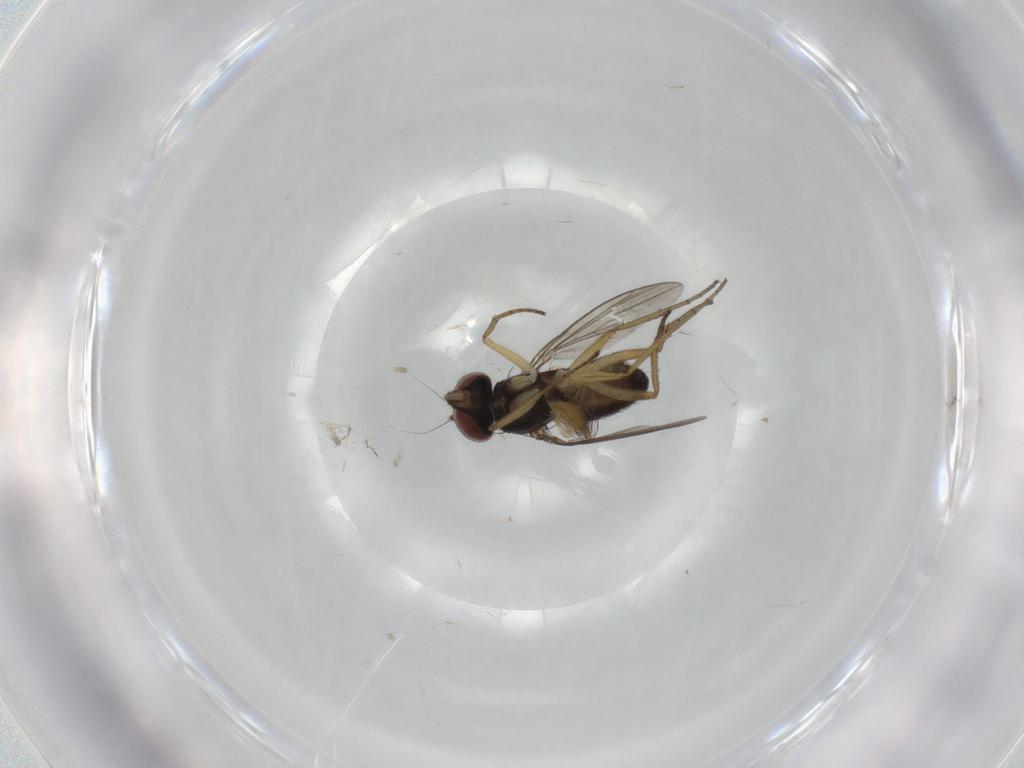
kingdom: Animalia
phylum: Arthropoda
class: Insecta
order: Diptera
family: Dolichopodidae
